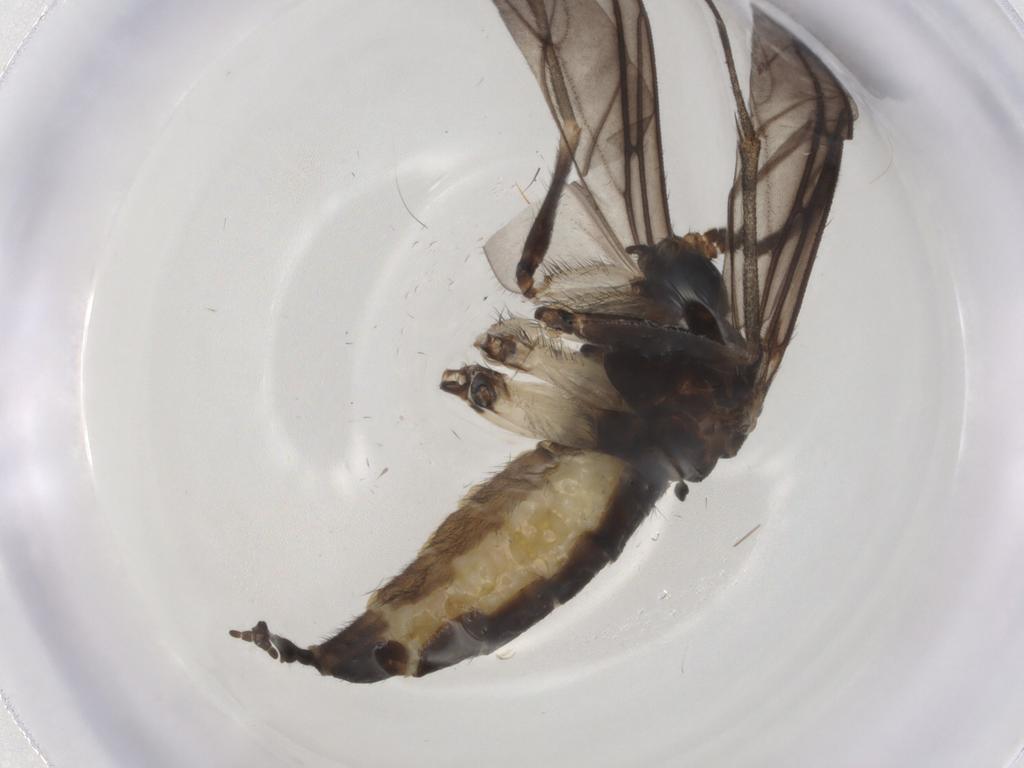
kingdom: Animalia
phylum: Arthropoda
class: Insecta
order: Diptera
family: Sciaridae
